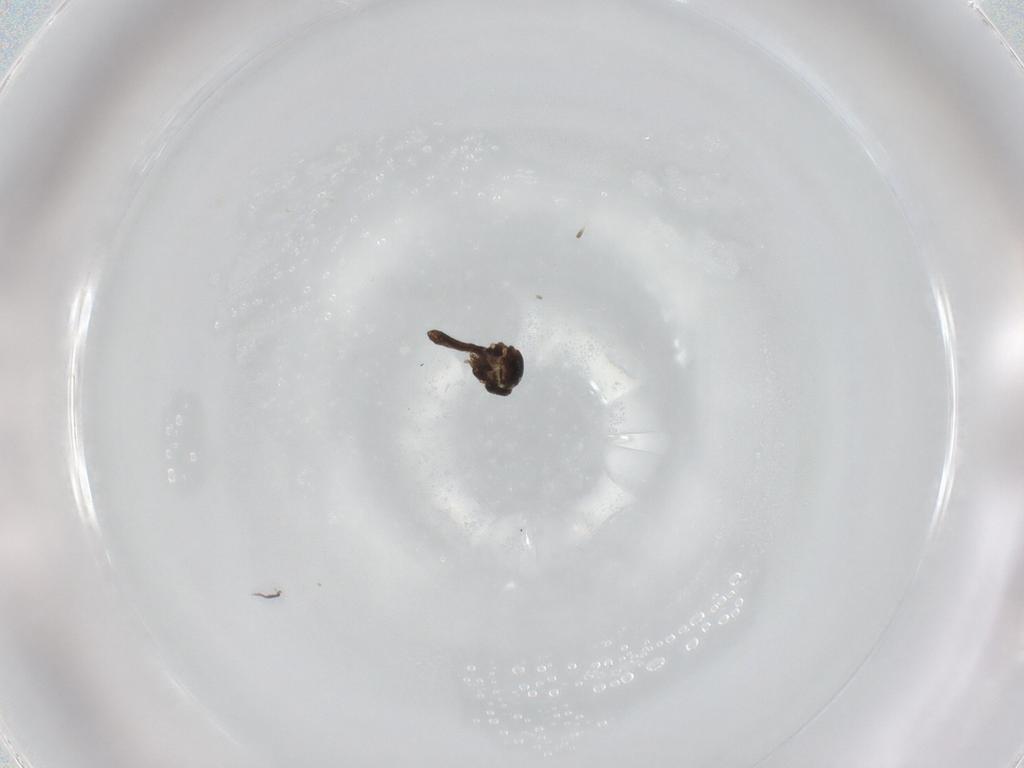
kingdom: Animalia
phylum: Arthropoda
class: Insecta
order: Diptera
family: Ceratopogonidae
